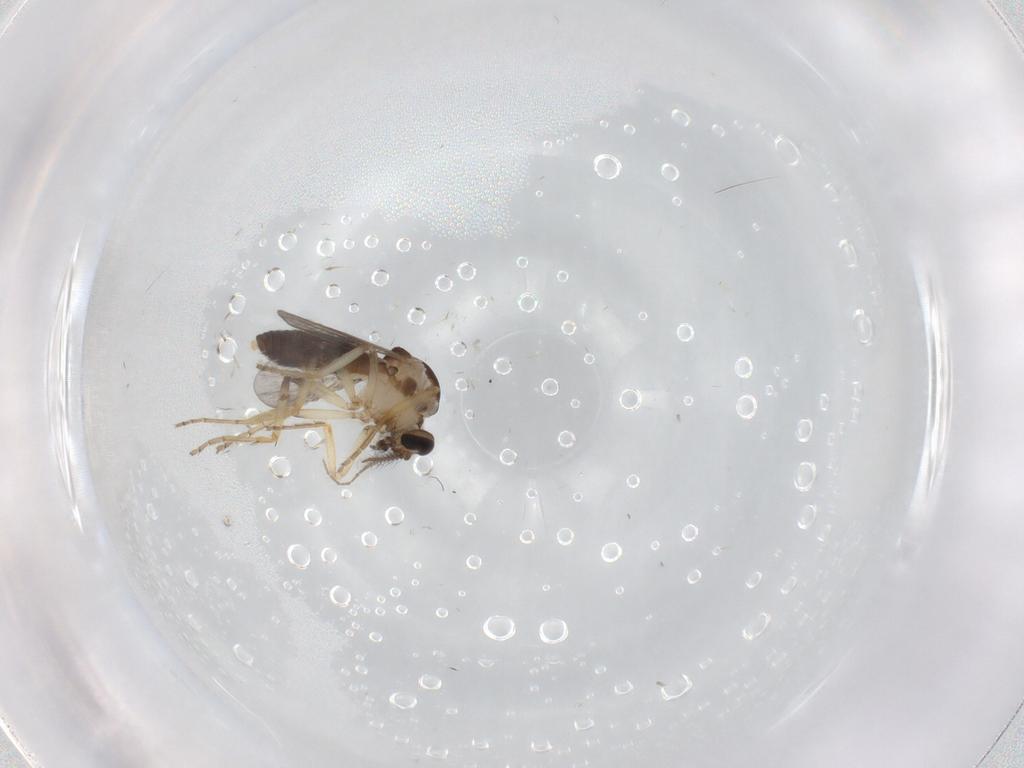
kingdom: Animalia
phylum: Arthropoda
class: Insecta
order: Diptera
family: Ceratopogonidae
